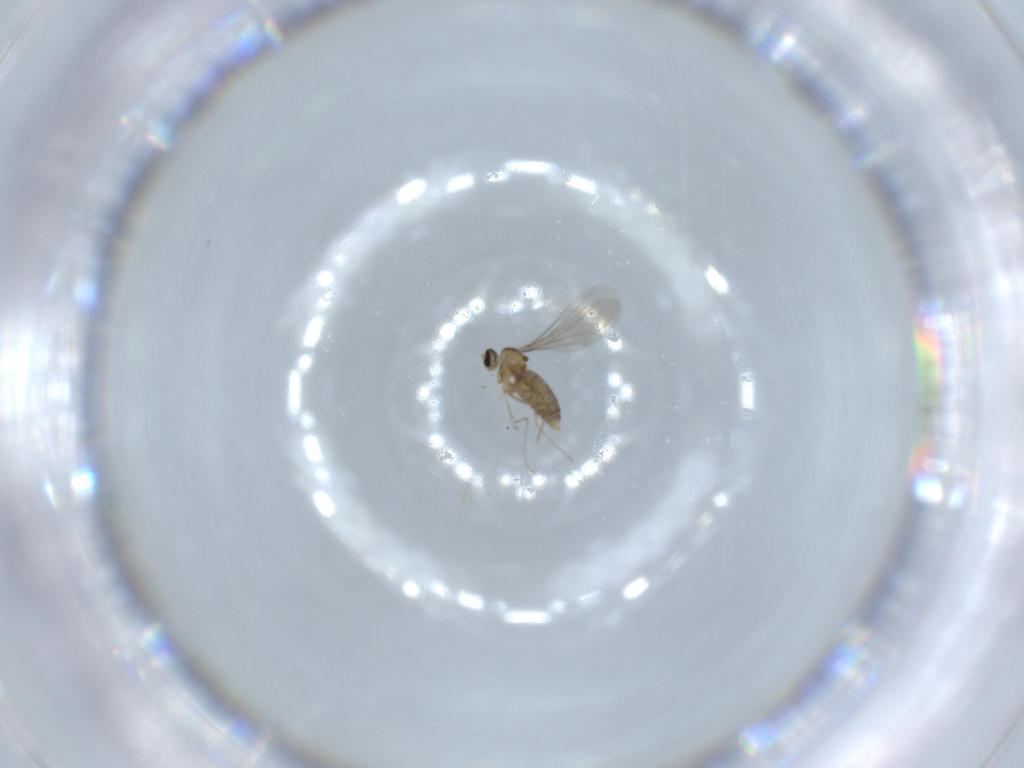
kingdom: Animalia
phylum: Arthropoda
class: Insecta
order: Diptera
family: Cecidomyiidae
